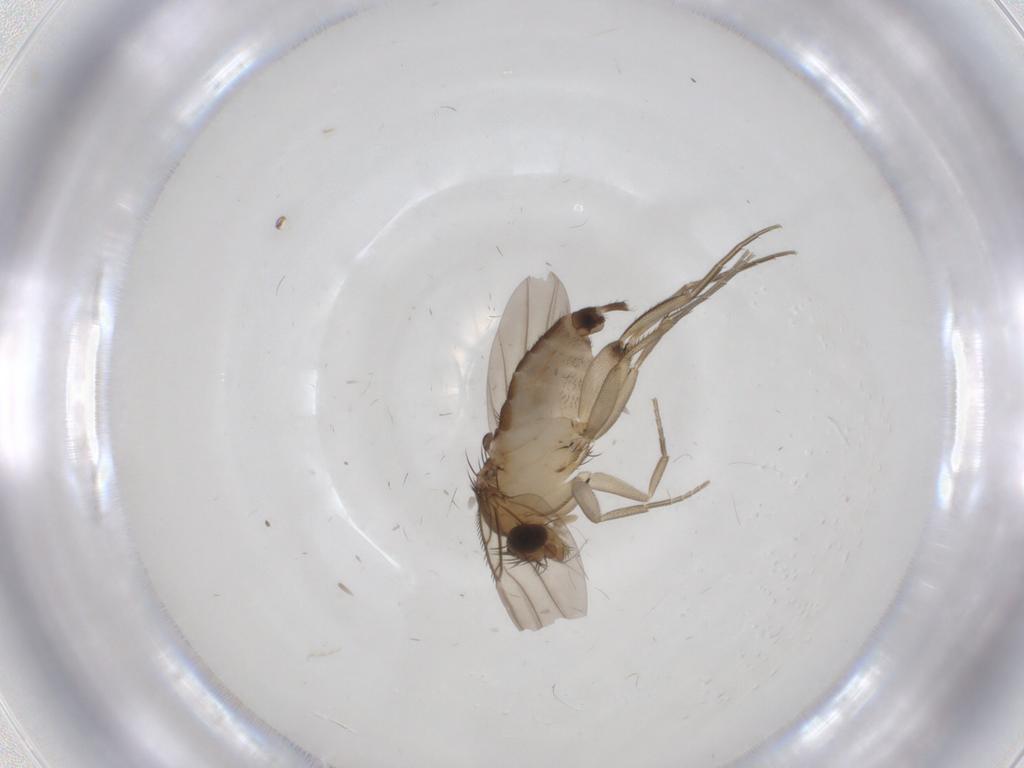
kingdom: Animalia
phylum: Arthropoda
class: Insecta
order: Diptera
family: Phoridae
